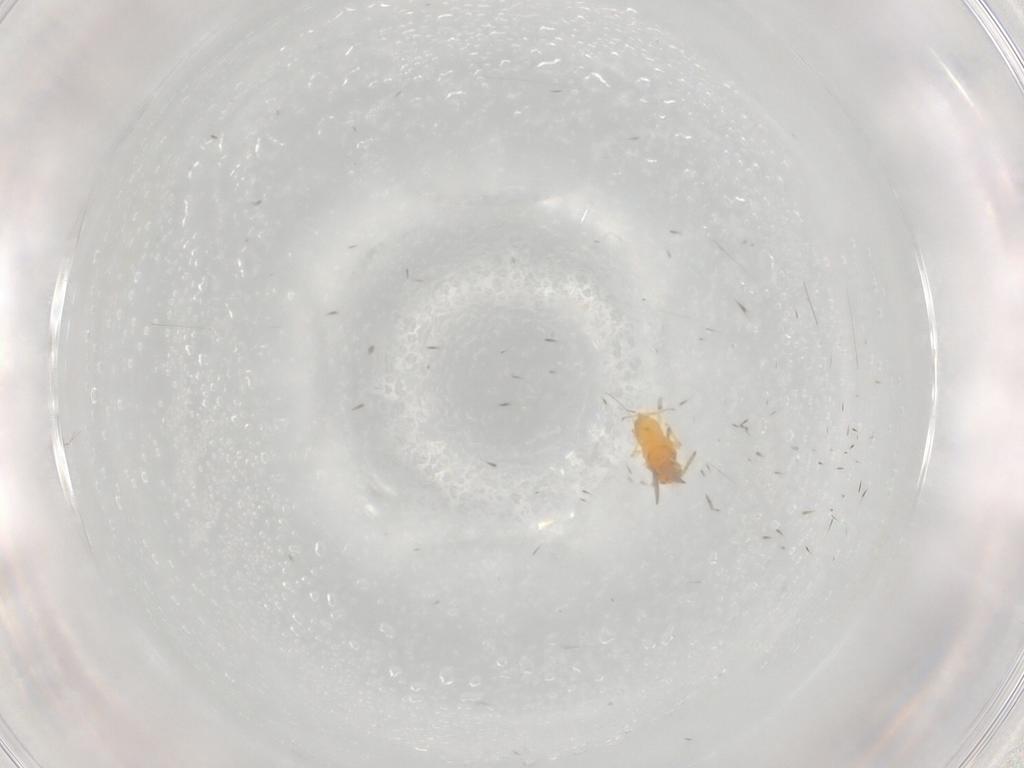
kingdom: Animalia
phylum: Arthropoda
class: Insecta
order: Hymenoptera
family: Aphelinidae
